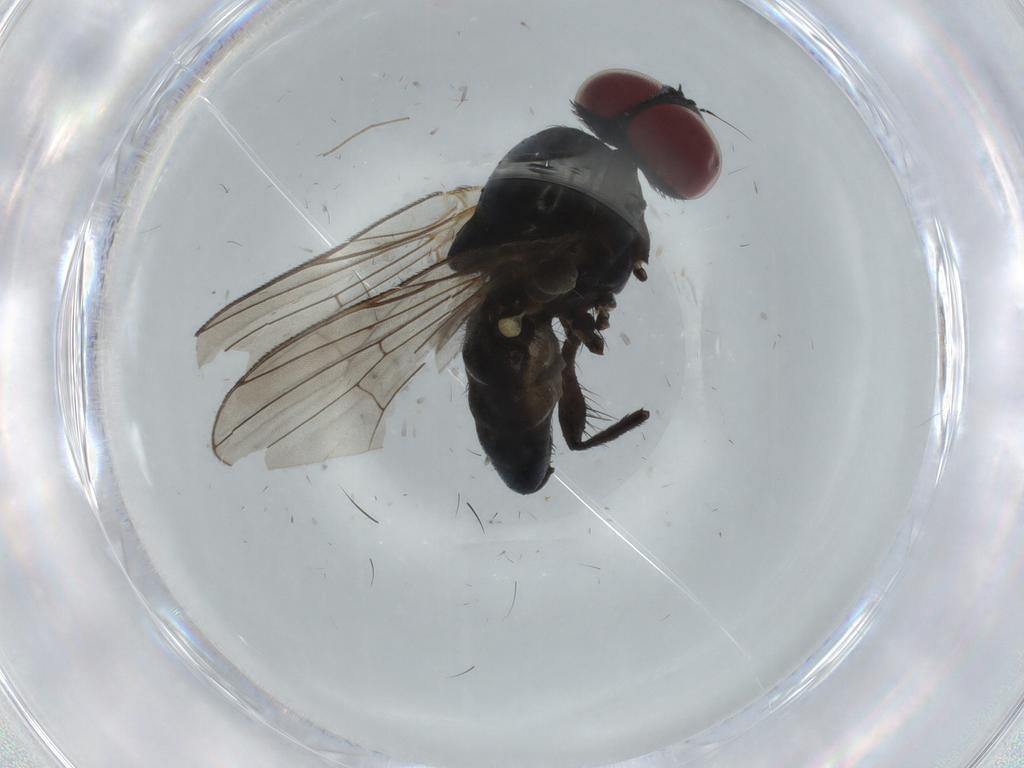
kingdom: Animalia
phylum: Arthropoda
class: Insecta
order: Diptera
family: Fannia
